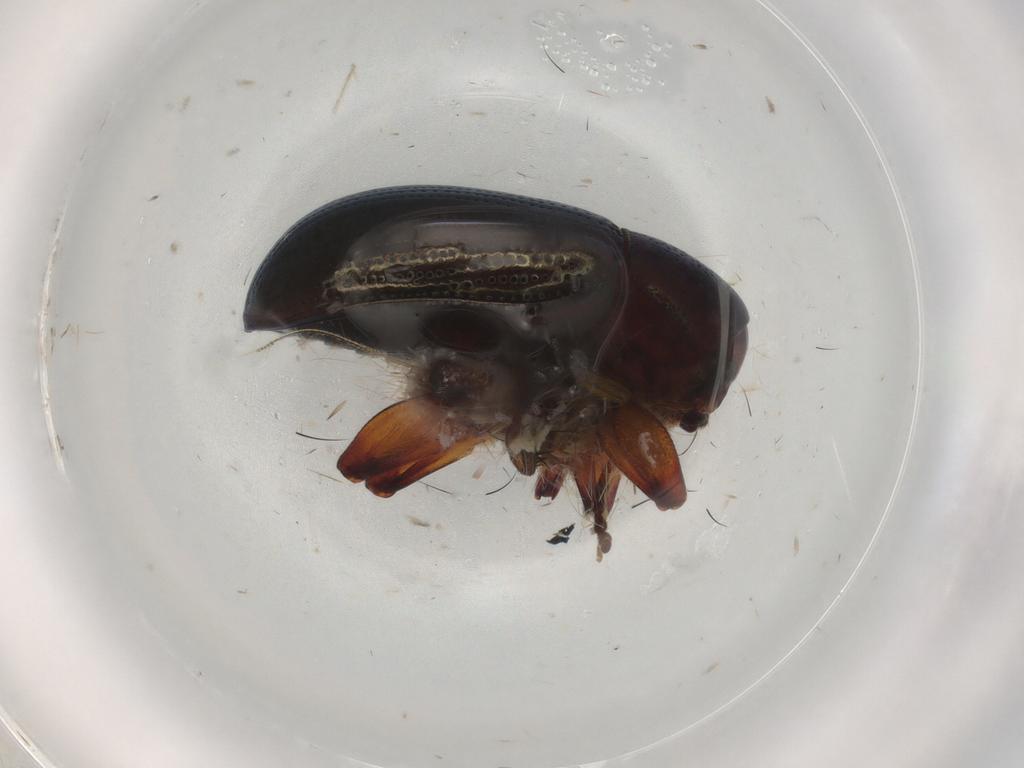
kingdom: Animalia
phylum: Arthropoda
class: Insecta
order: Coleoptera
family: Chrysomelidae
